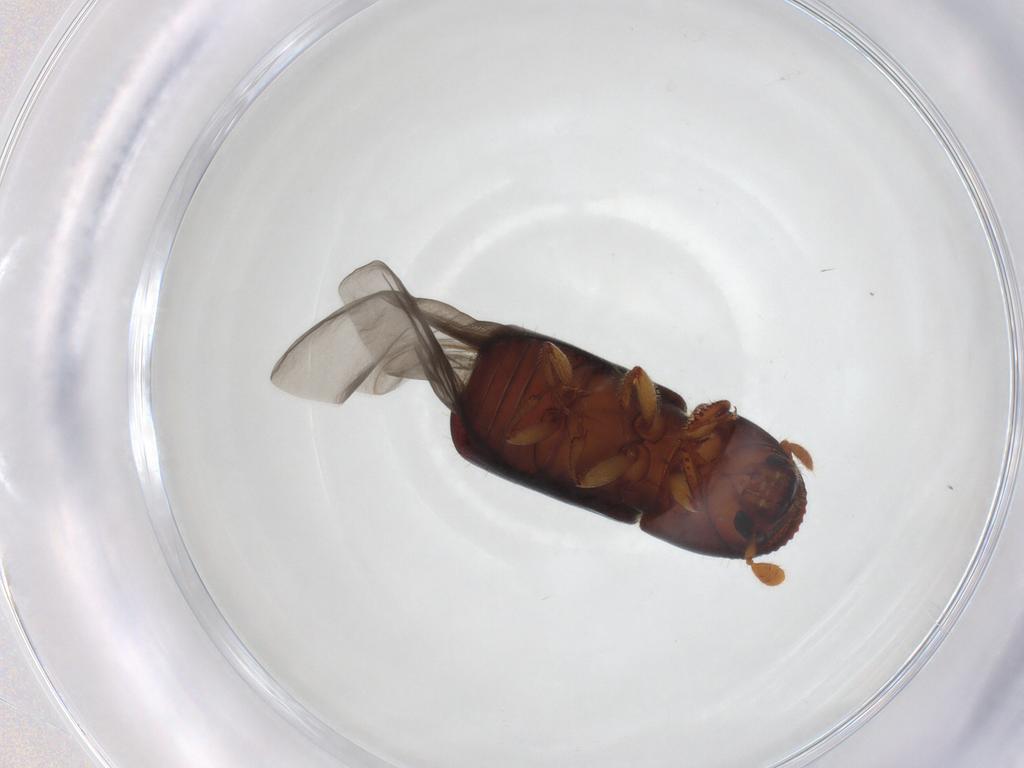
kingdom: Animalia
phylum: Arthropoda
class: Insecta
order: Coleoptera
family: Curculionidae
